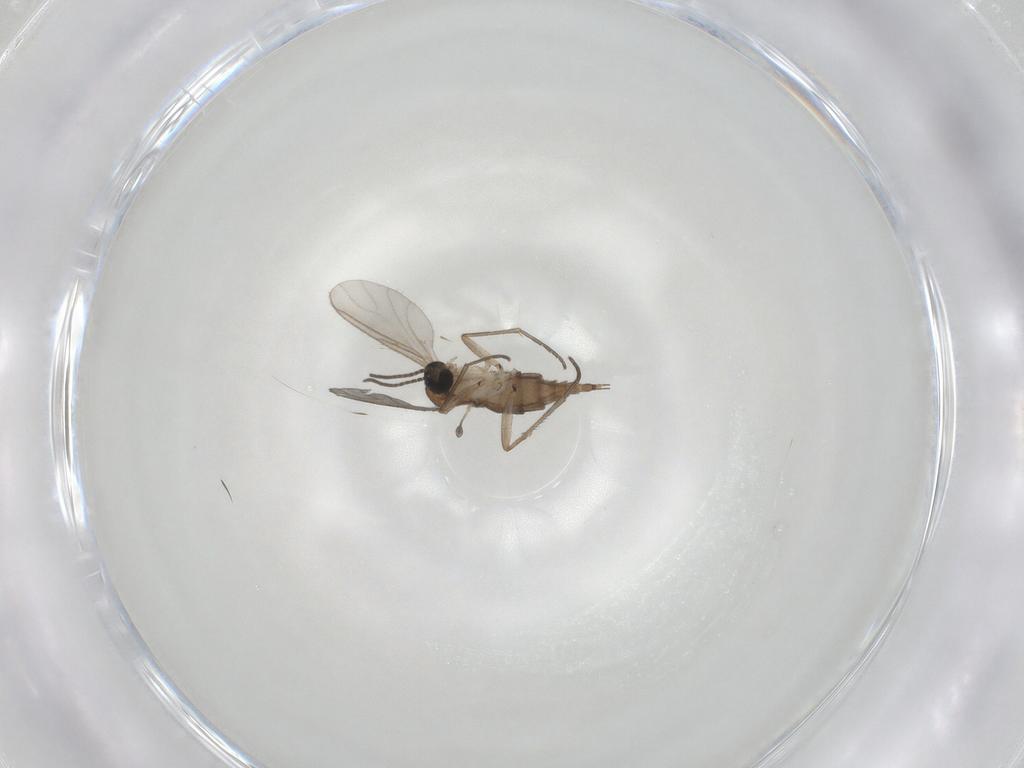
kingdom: Animalia
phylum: Arthropoda
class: Insecta
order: Diptera
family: Sciaridae
